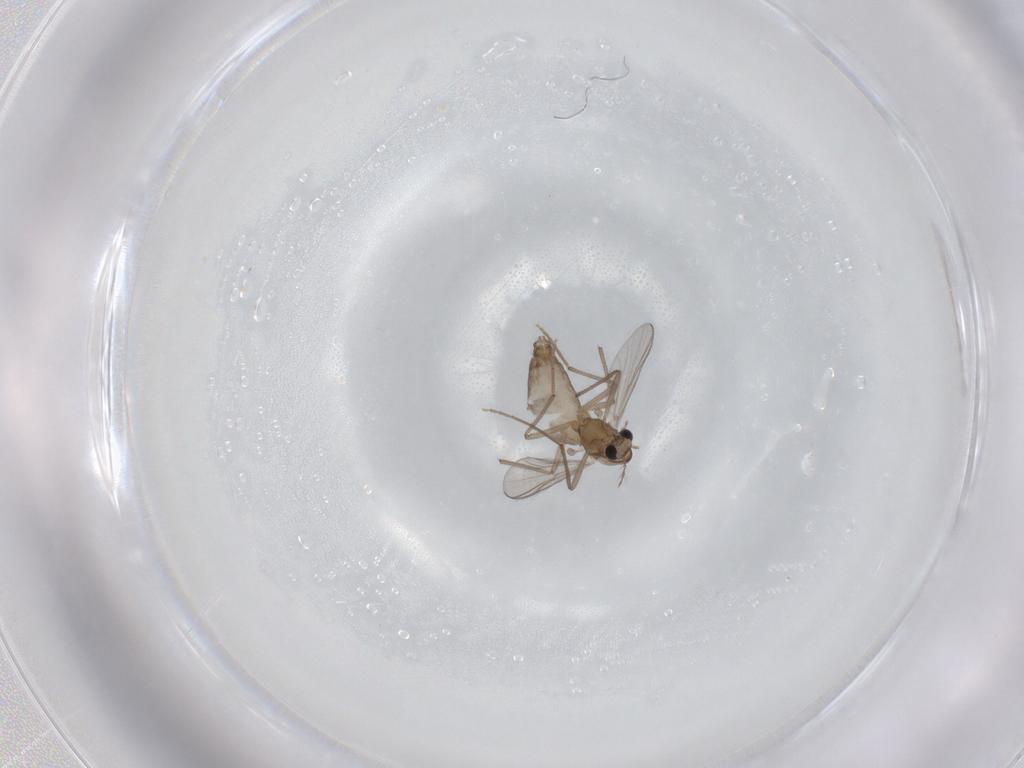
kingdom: Animalia
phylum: Arthropoda
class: Insecta
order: Diptera
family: Chironomidae
